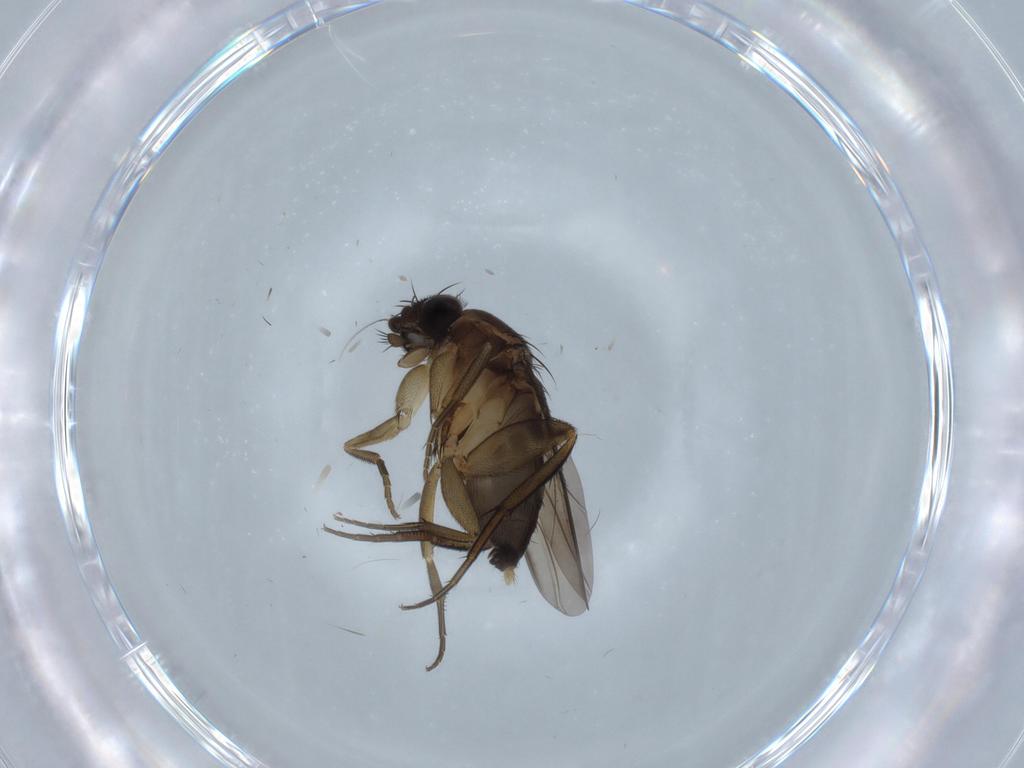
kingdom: Animalia
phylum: Arthropoda
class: Insecta
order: Diptera
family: Phoridae
